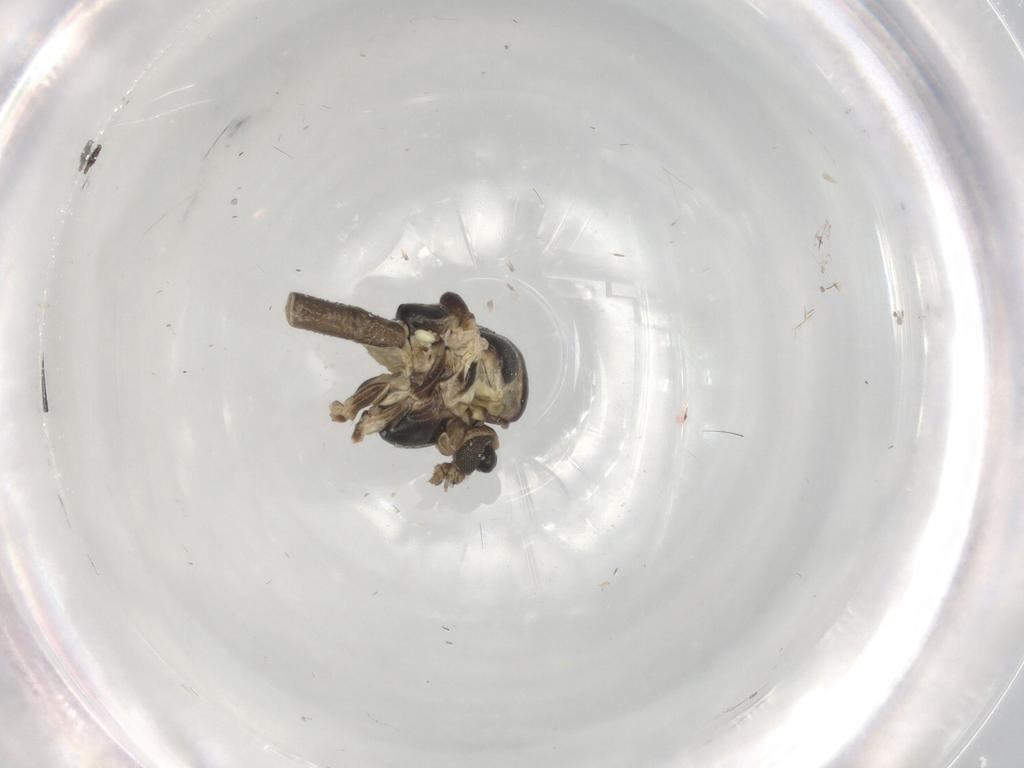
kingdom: Animalia
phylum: Arthropoda
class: Insecta
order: Diptera
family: Chironomidae
